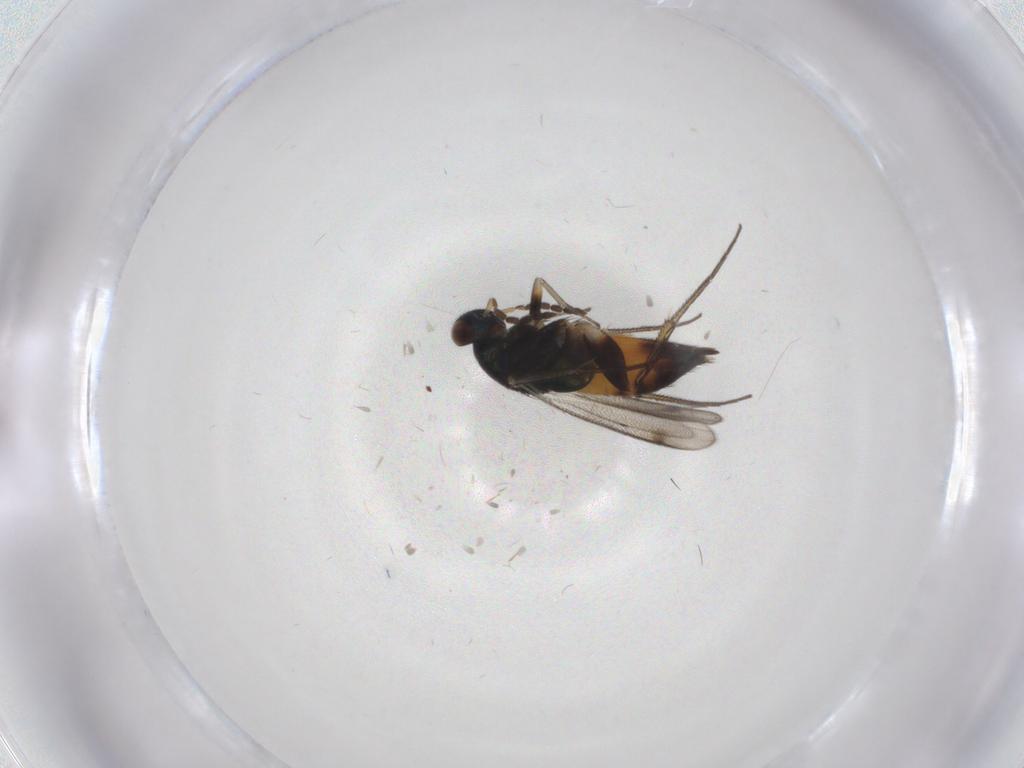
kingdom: Animalia
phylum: Arthropoda
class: Insecta
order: Hymenoptera
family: Eulophidae
